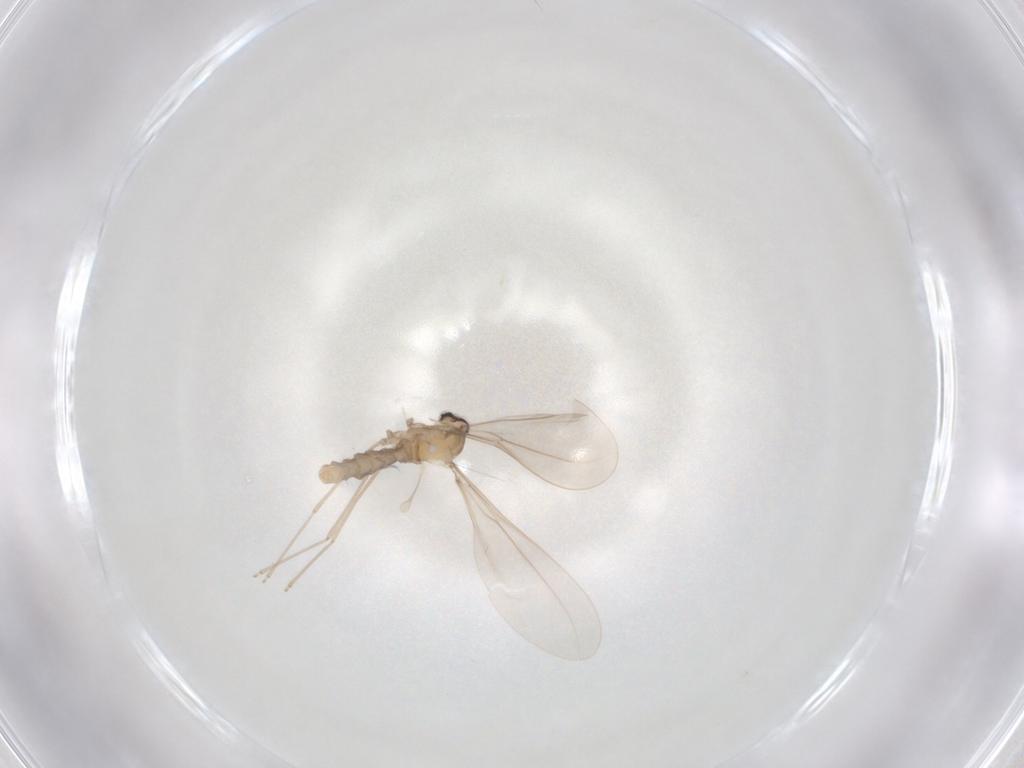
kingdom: Animalia
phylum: Arthropoda
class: Insecta
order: Diptera
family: Cecidomyiidae
